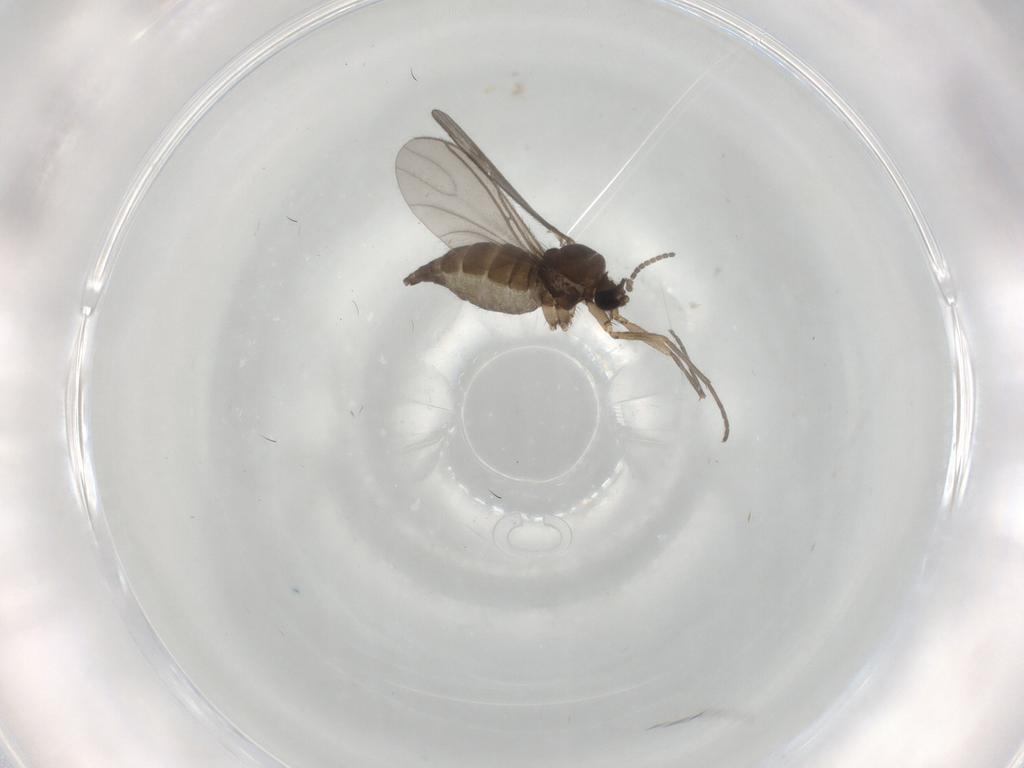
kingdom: Animalia
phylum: Arthropoda
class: Insecta
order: Diptera
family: Sciaridae
